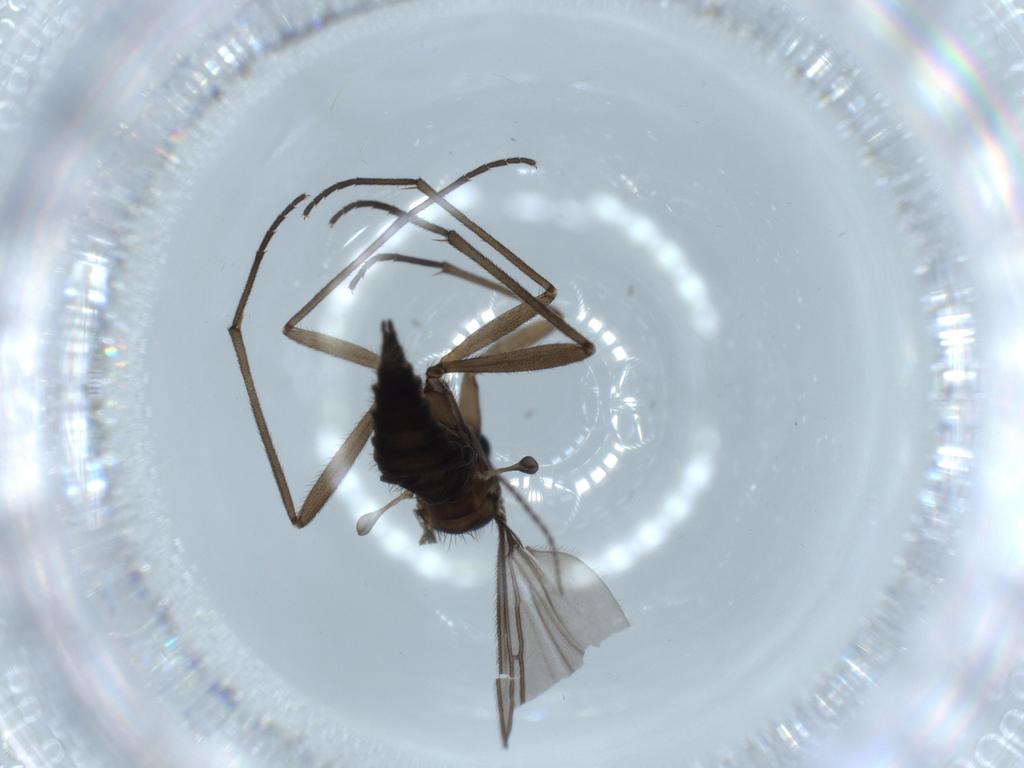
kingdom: Animalia
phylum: Arthropoda
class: Insecta
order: Diptera
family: Sciaridae
